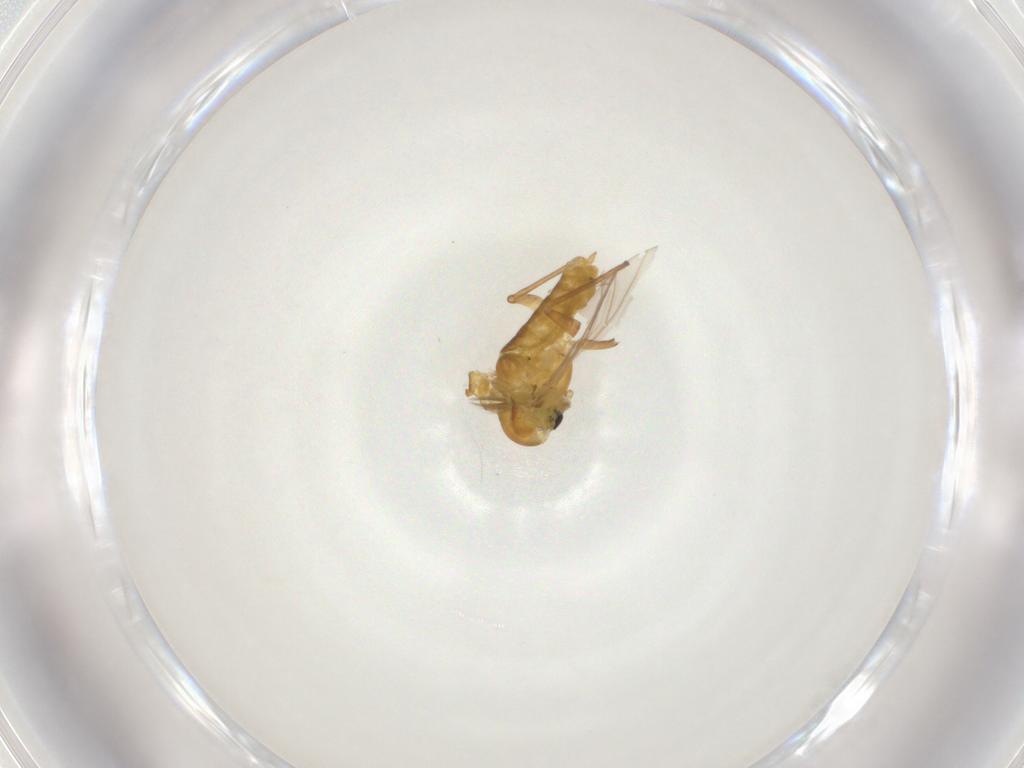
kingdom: Animalia
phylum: Arthropoda
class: Insecta
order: Diptera
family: Chironomidae
